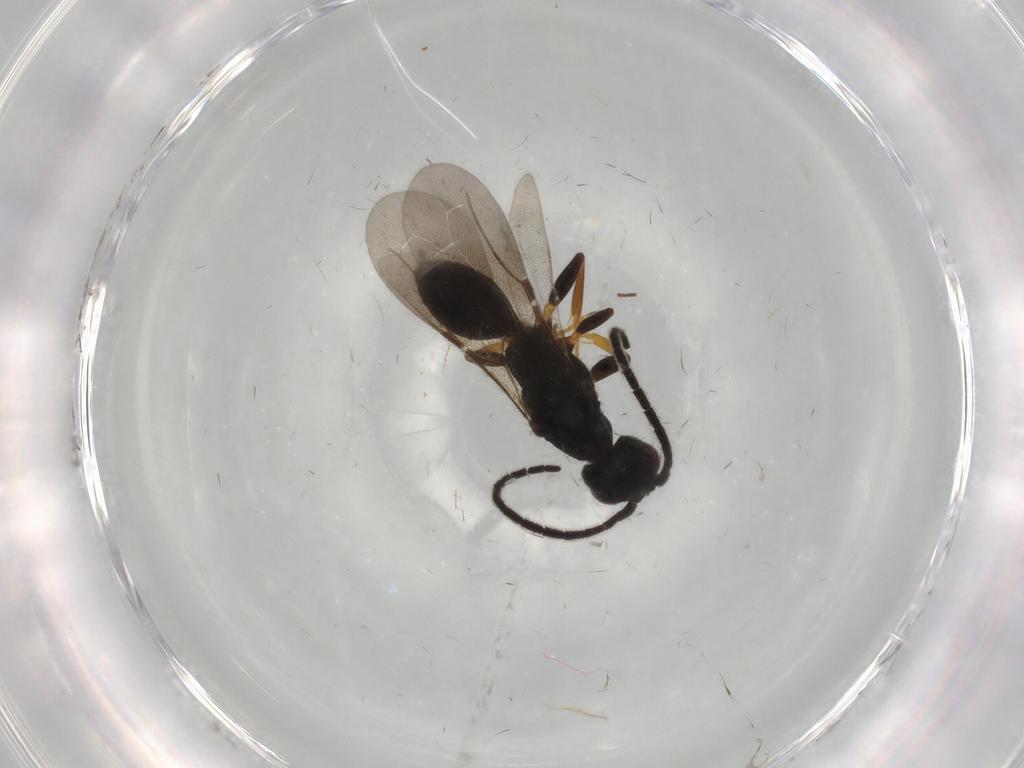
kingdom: Animalia
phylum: Arthropoda
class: Insecta
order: Hymenoptera
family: Bethylidae
